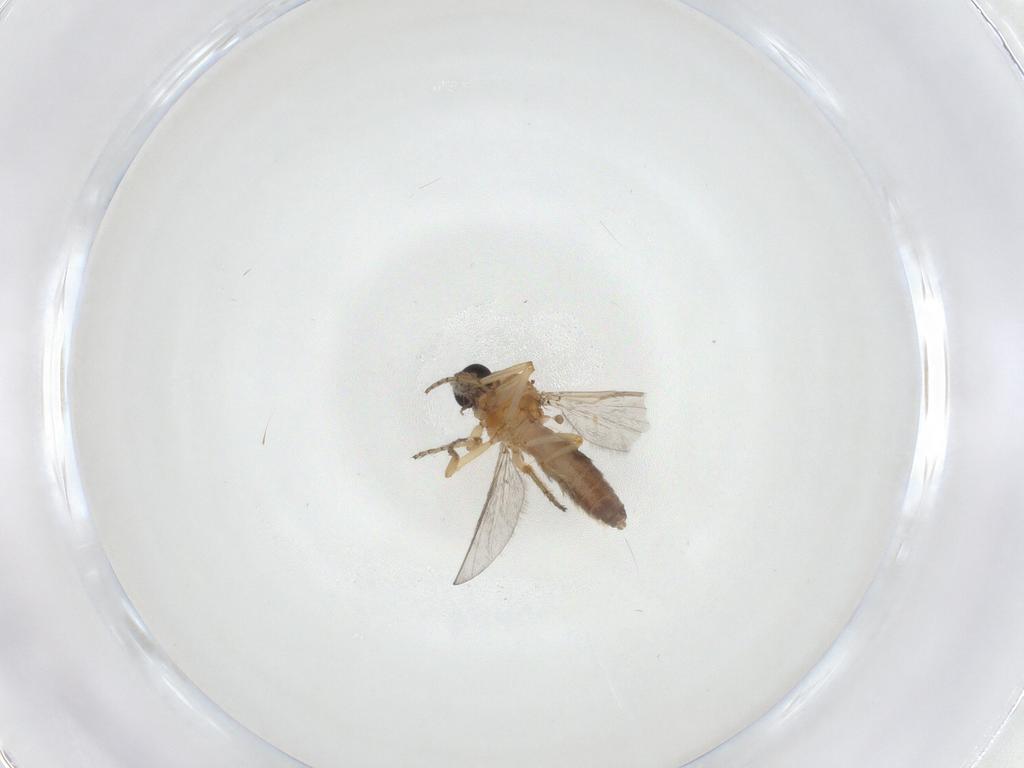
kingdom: Animalia
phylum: Arthropoda
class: Insecta
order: Diptera
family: Ceratopogonidae
